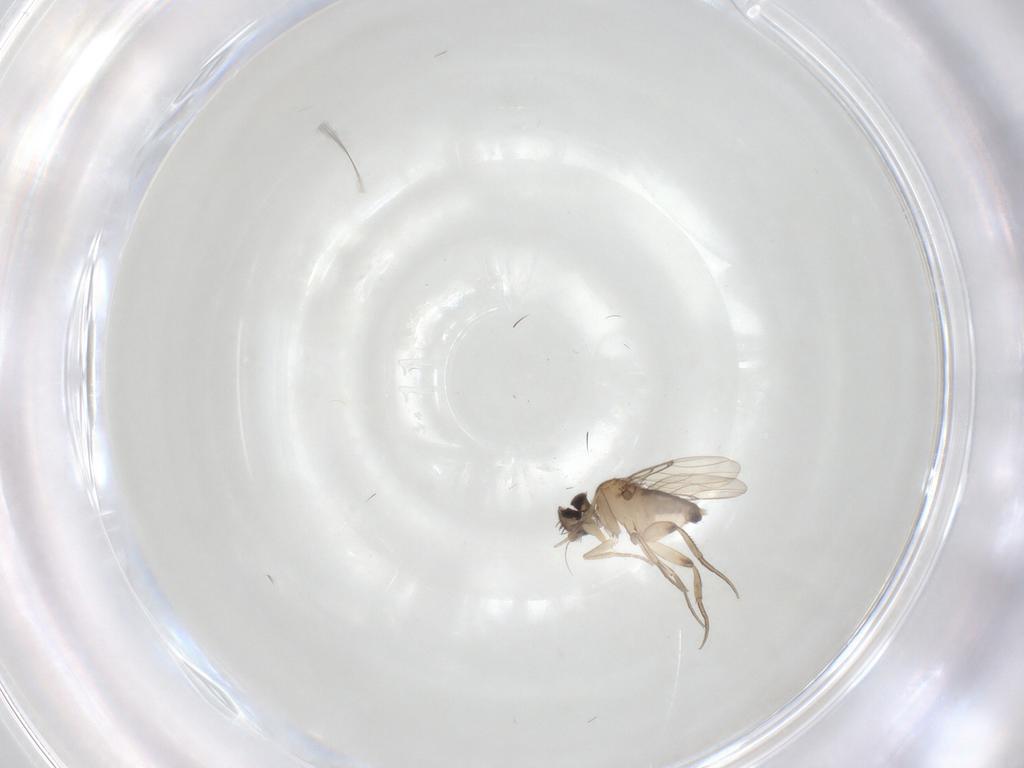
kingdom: Animalia
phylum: Arthropoda
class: Insecta
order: Diptera
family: Phoridae
